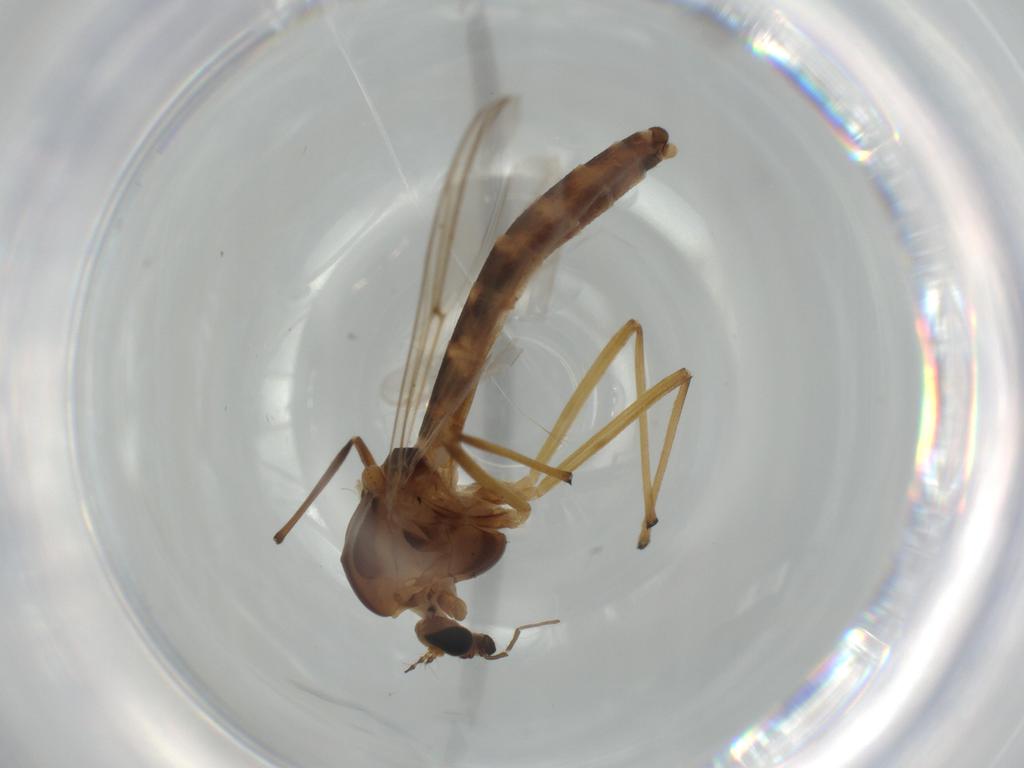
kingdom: Animalia
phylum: Arthropoda
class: Insecta
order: Diptera
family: Chironomidae
